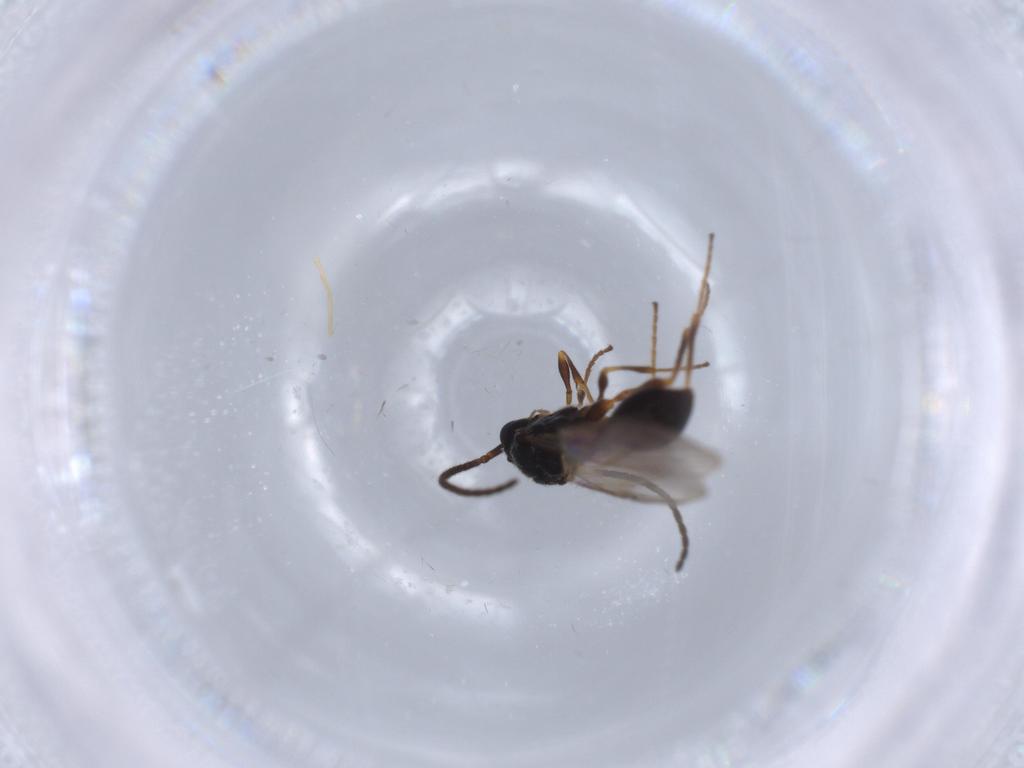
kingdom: Animalia
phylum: Arthropoda
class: Insecta
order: Hymenoptera
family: Diapriidae
